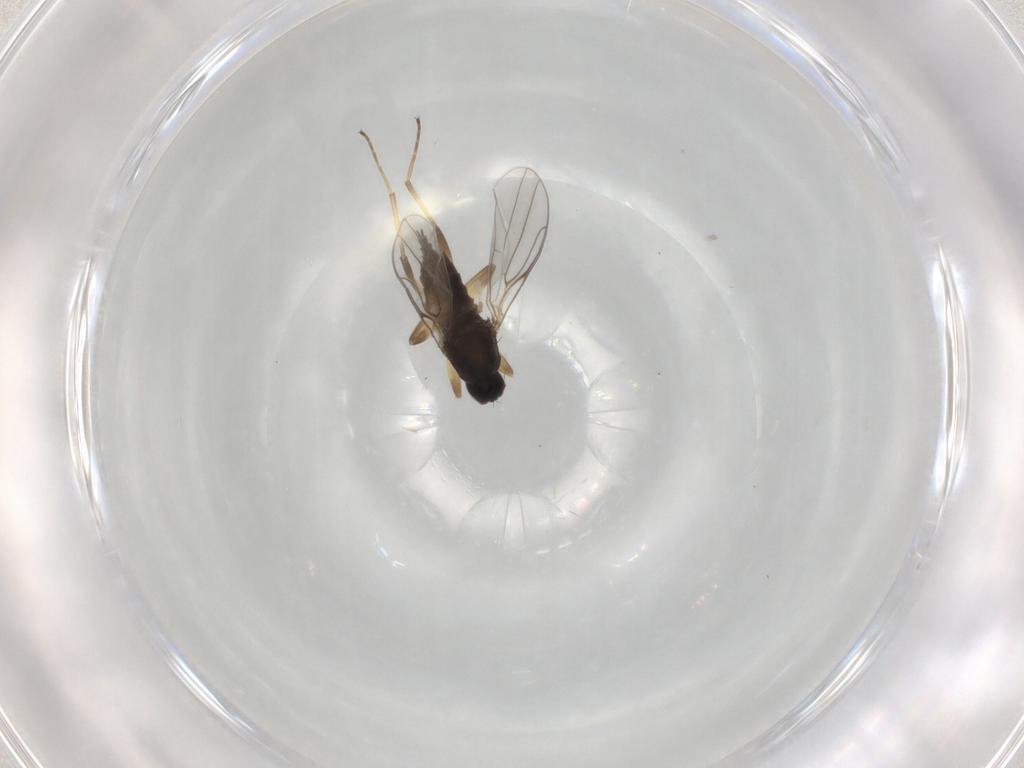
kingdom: Animalia
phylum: Arthropoda
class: Insecta
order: Diptera
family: Hybotidae
